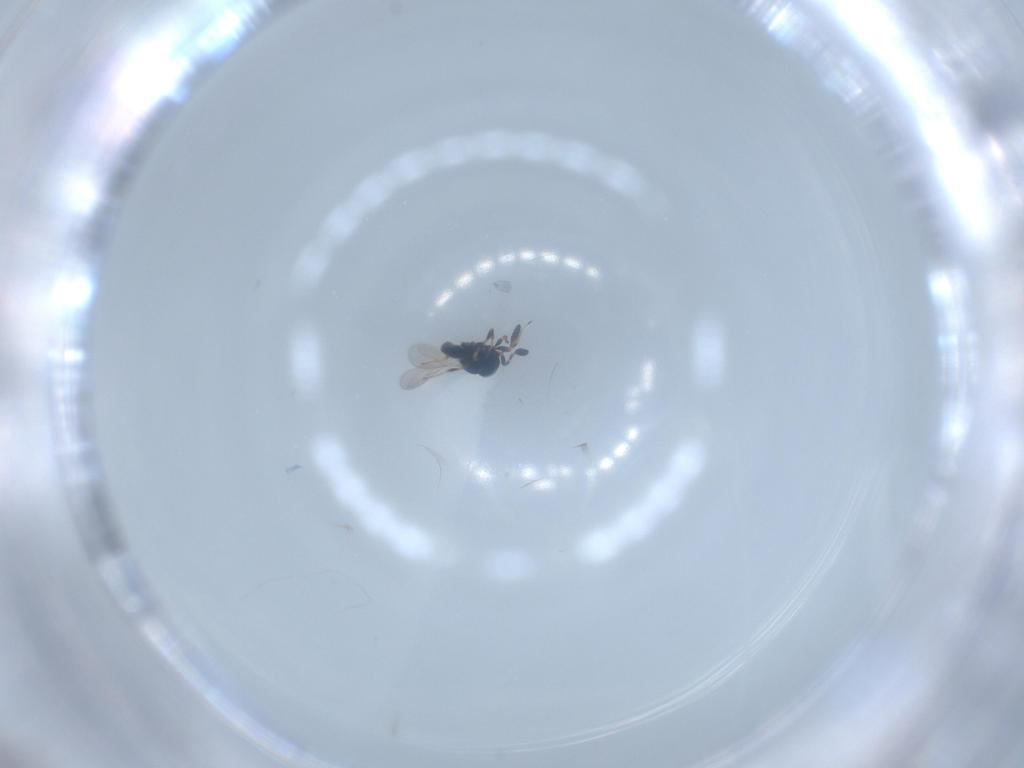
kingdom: Animalia
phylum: Arthropoda
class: Insecta
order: Hymenoptera
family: Scelionidae
